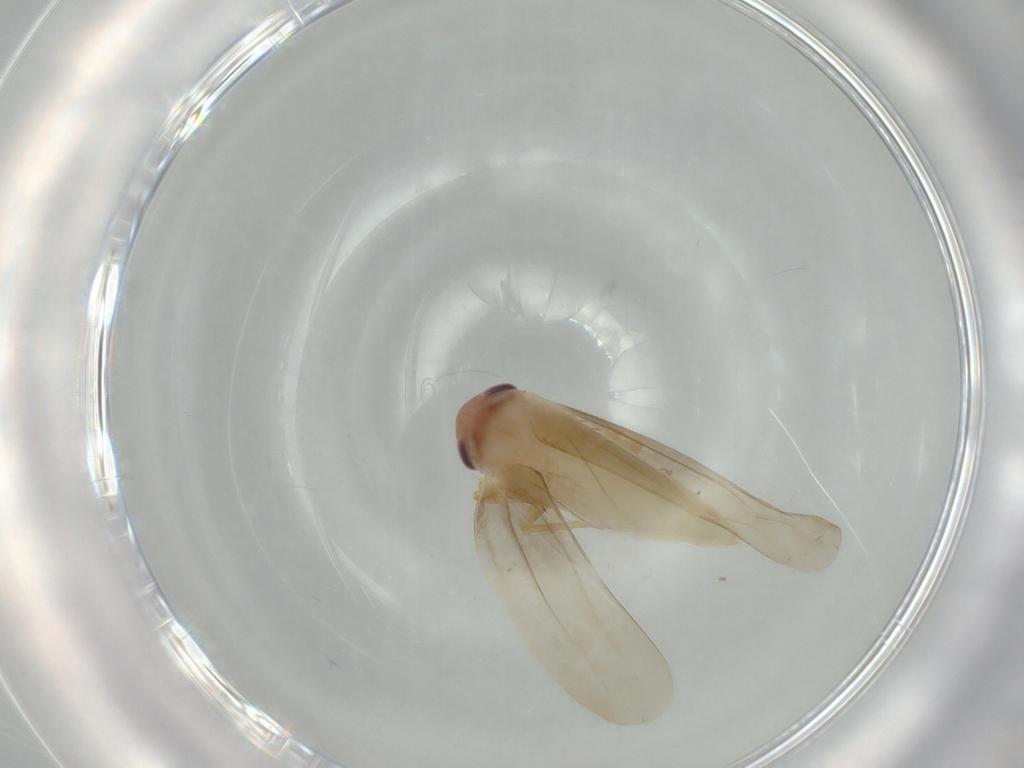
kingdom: Animalia
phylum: Arthropoda
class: Insecta
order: Hemiptera
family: Cicadellidae
